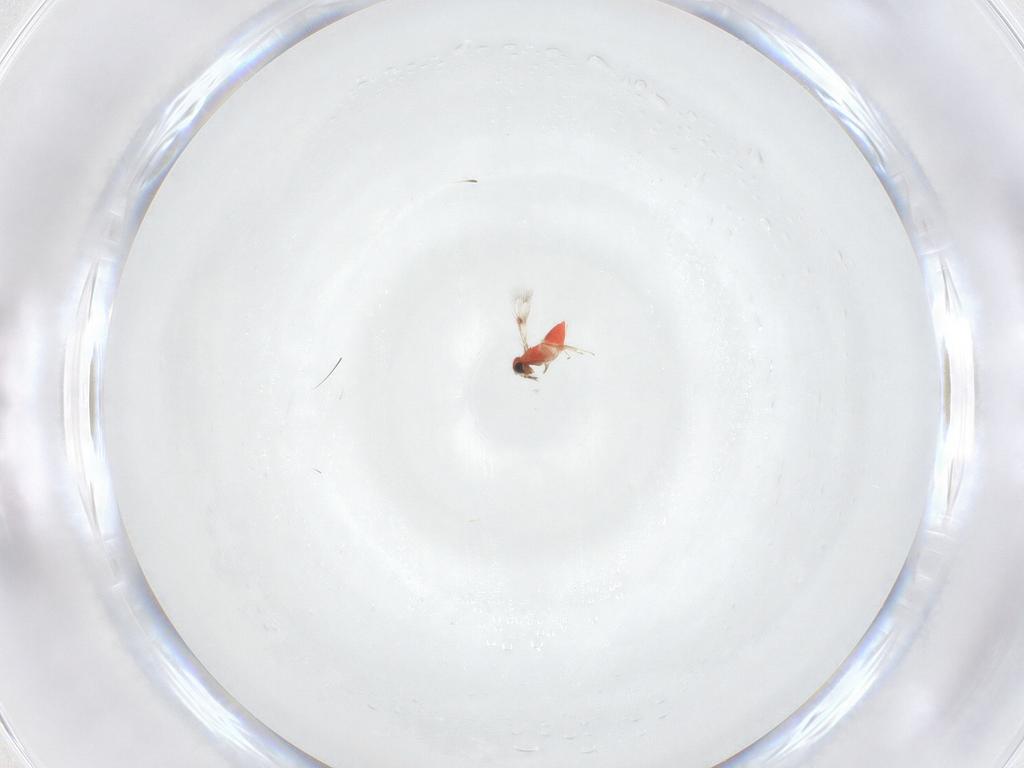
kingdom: Animalia
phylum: Arthropoda
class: Insecta
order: Hymenoptera
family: Trichogrammatidae
